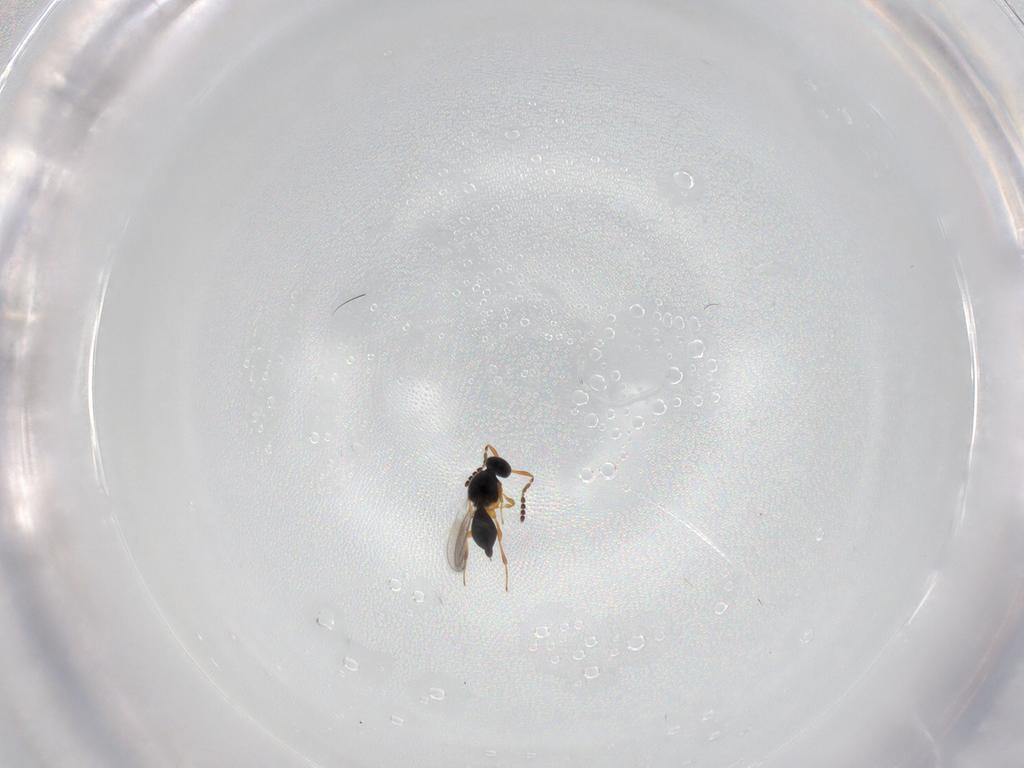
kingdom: Animalia
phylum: Arthropoda
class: Insecta
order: Hymenoptera
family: Platygastridae
